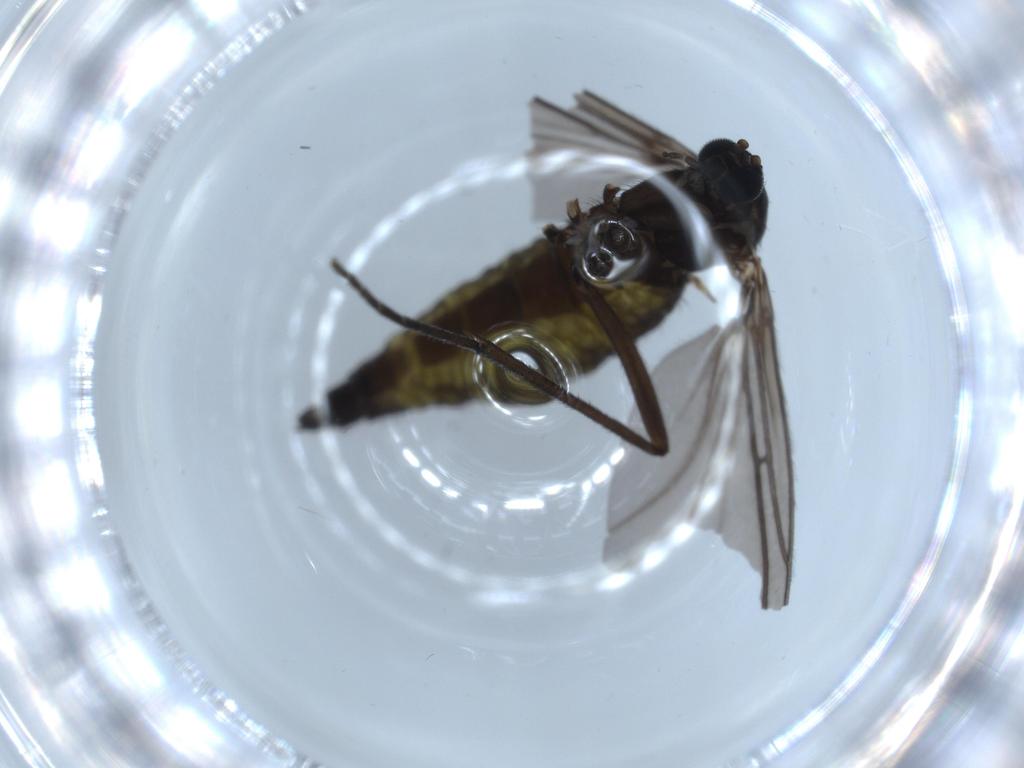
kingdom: Animalia
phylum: Arthropoda
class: Insecta
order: Diptera
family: Sciaridae
